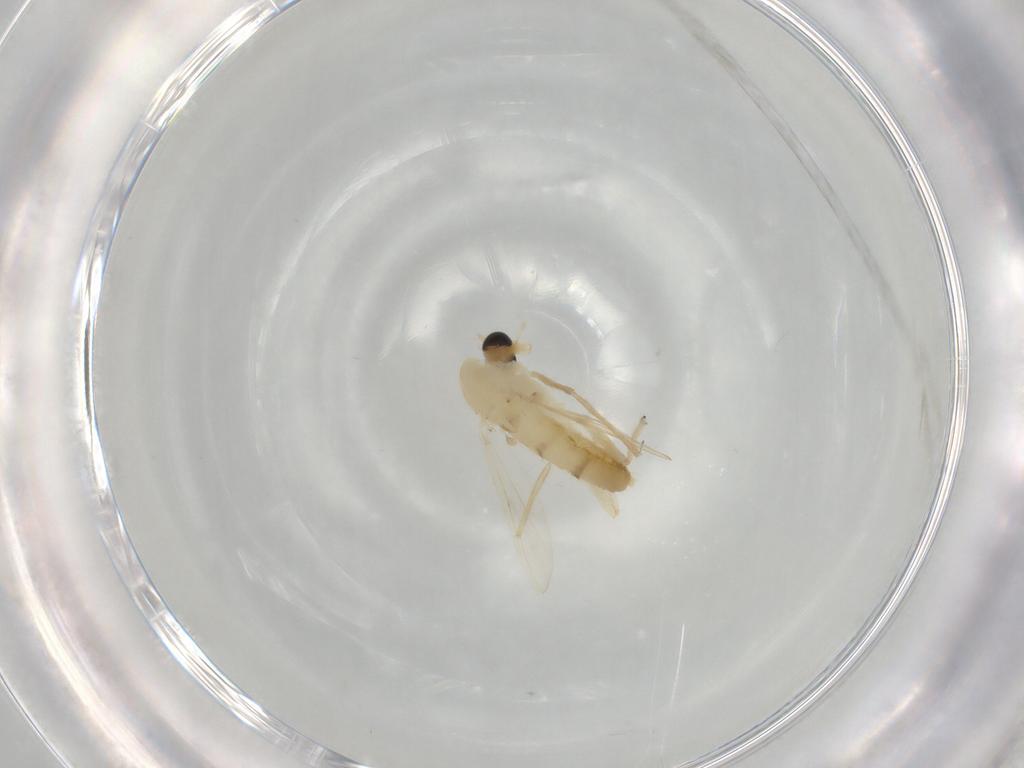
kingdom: Animalia
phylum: Arthropoda
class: Insecta
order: Diptera
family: Chironomidae
